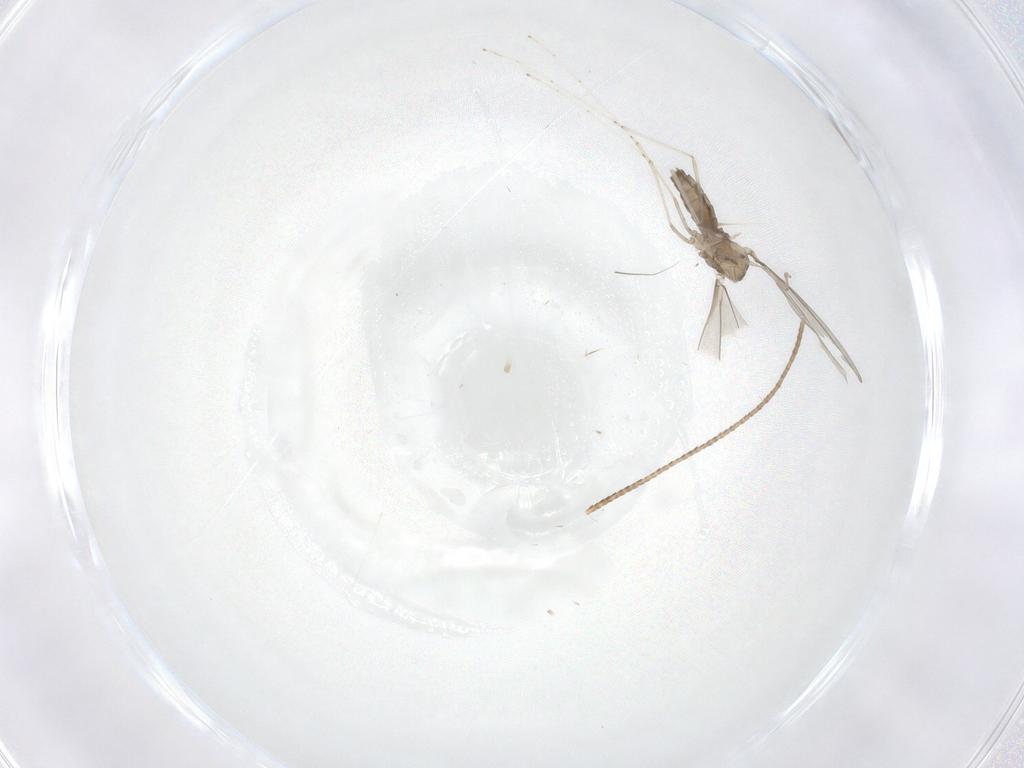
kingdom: Animalia
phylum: Arthropoda
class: Insecta
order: Diptera
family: Cecidomyiidae
